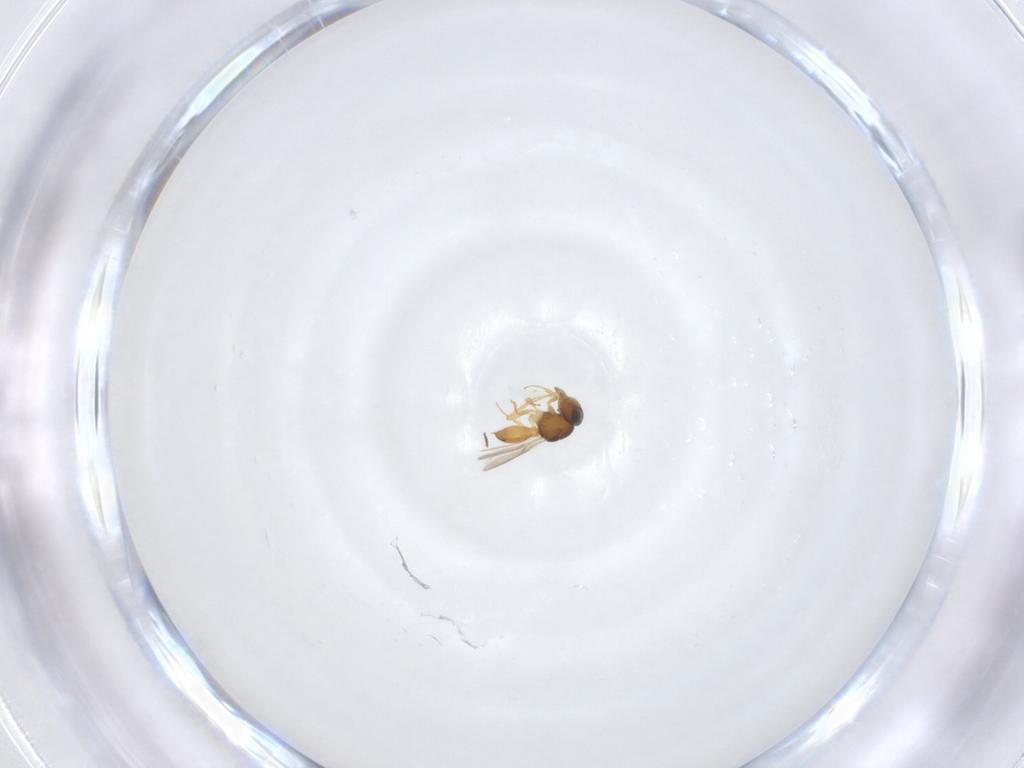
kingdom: Animalia
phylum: Arthropoda
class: Insecta
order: Hymenoptera
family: Scelionidae
